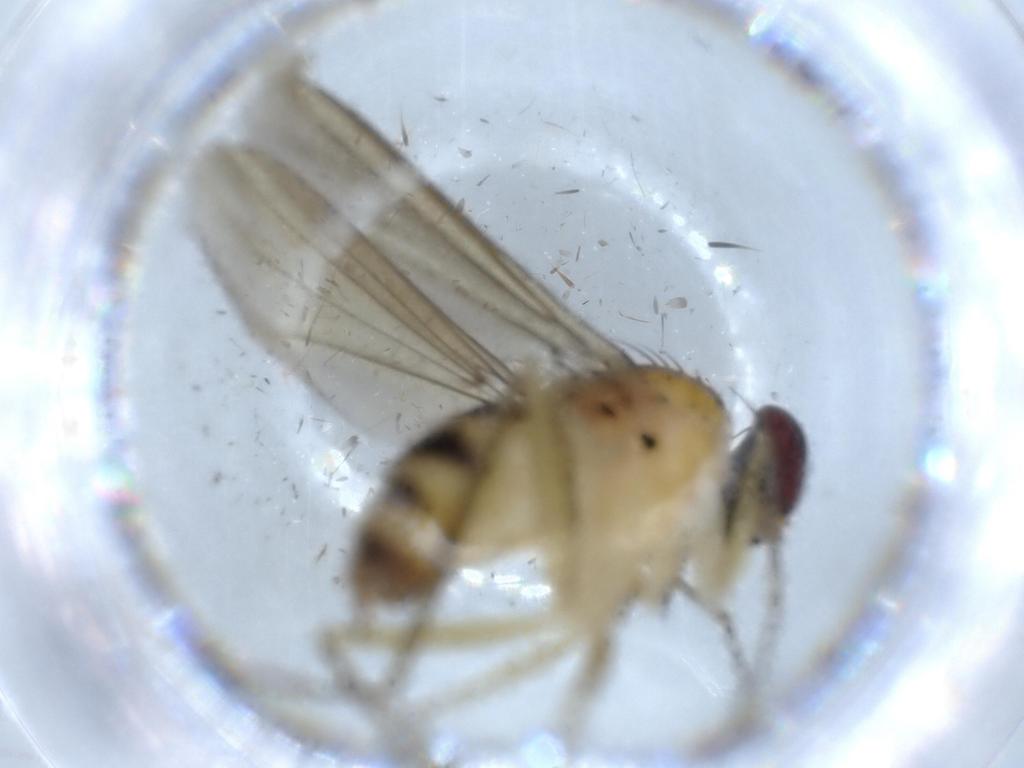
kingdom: Animalia
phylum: Arthropoda
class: Insecta
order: Diptera
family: Dolichopodidae
